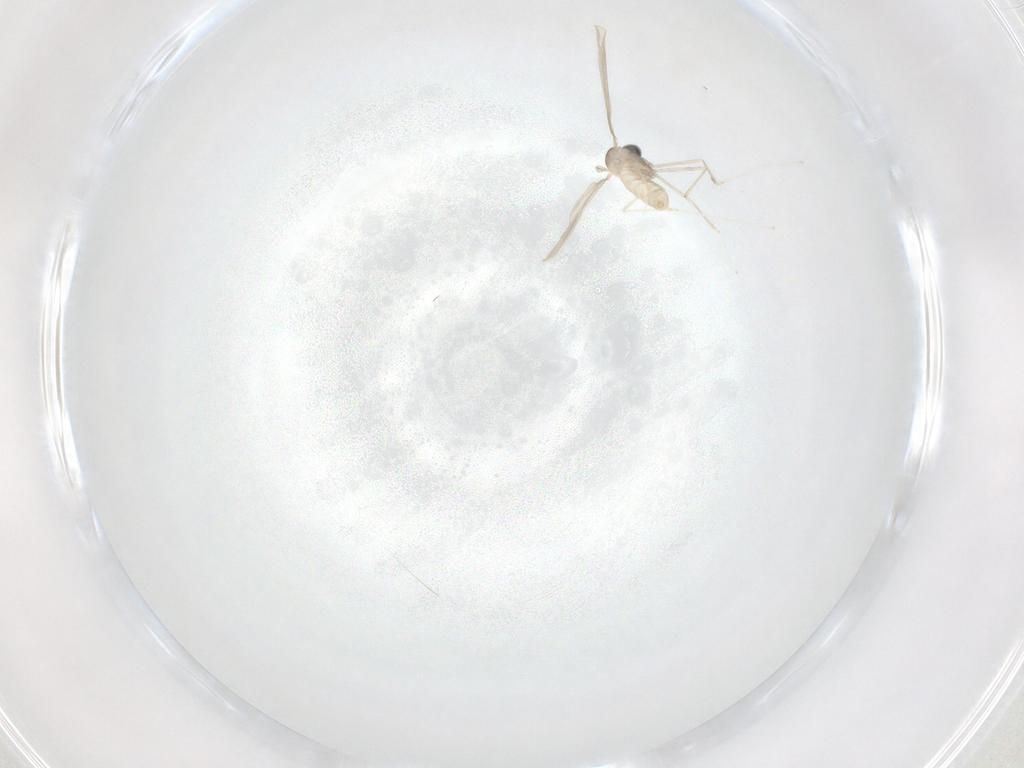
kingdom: Animalia
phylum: Arthropoda
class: Insecta
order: Diptera
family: Cecidomyiidae
